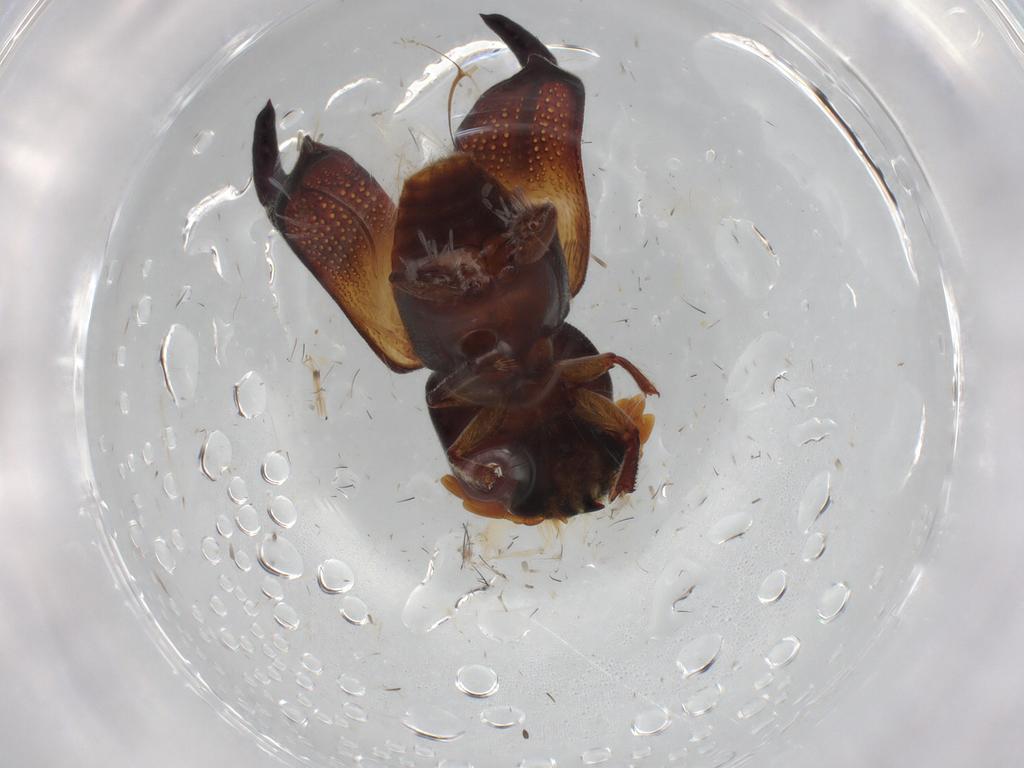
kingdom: Animalia
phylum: Arthropoda
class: Insecta
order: Coleoptera
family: Bostrichidae
